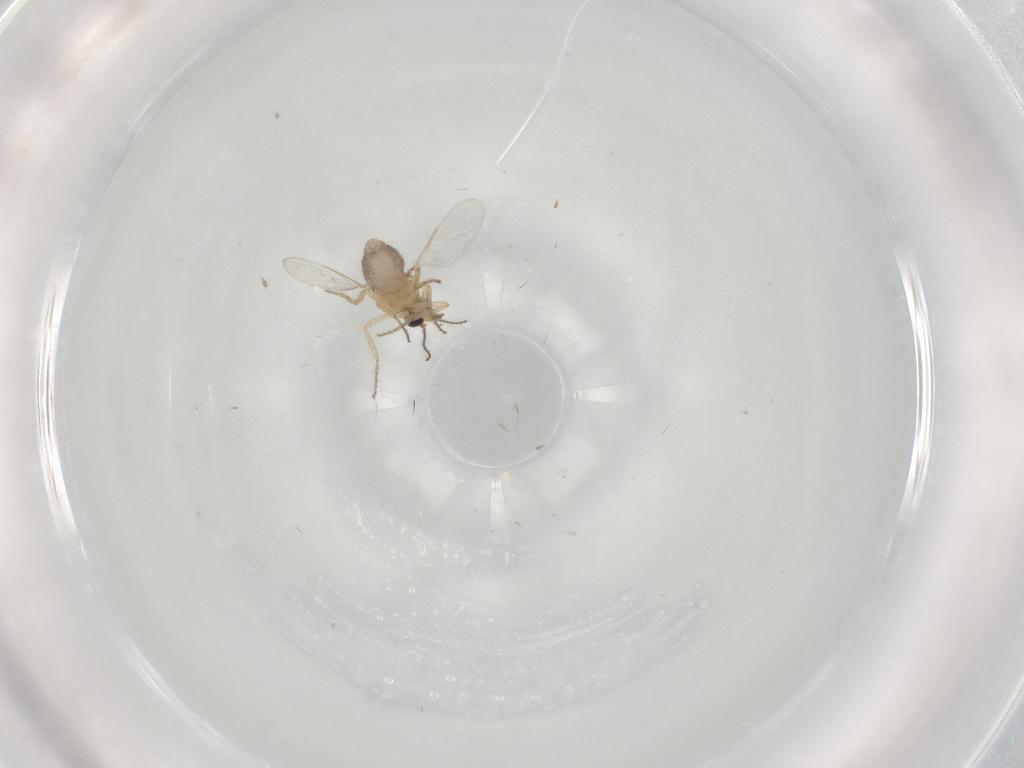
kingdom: Animalia
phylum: Arthropoda
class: Insecta
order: Diptera
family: Ceratopogonidae
